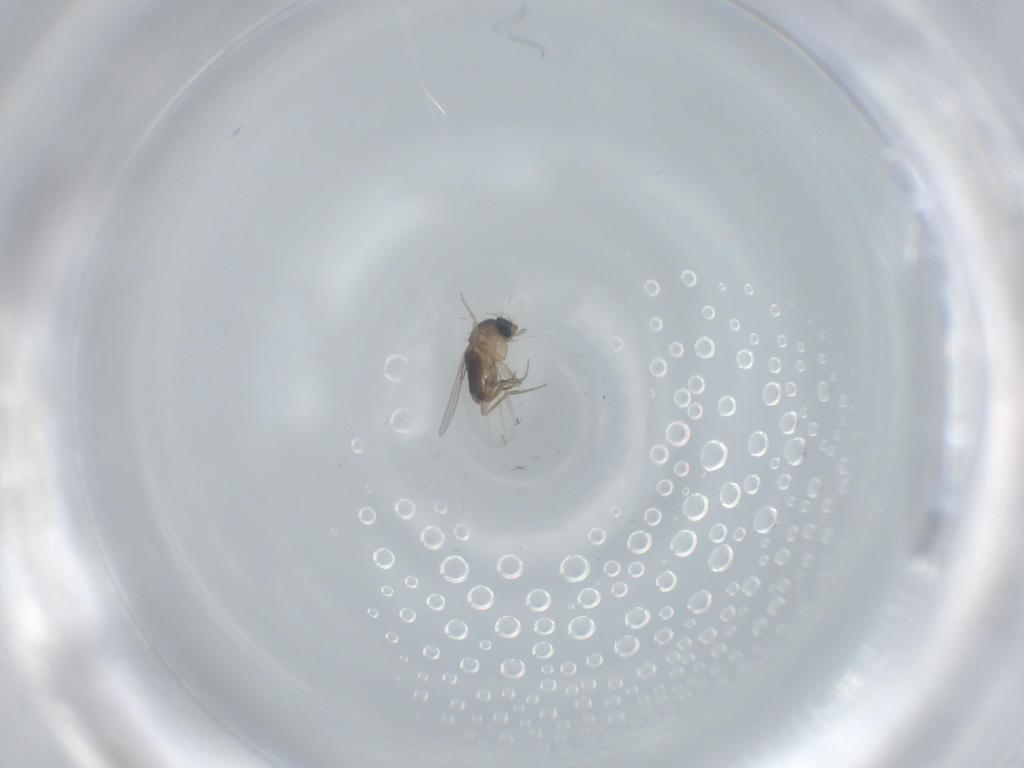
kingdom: Animalia
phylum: Arthropoda
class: Insecta
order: Diptera
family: Phoridae
